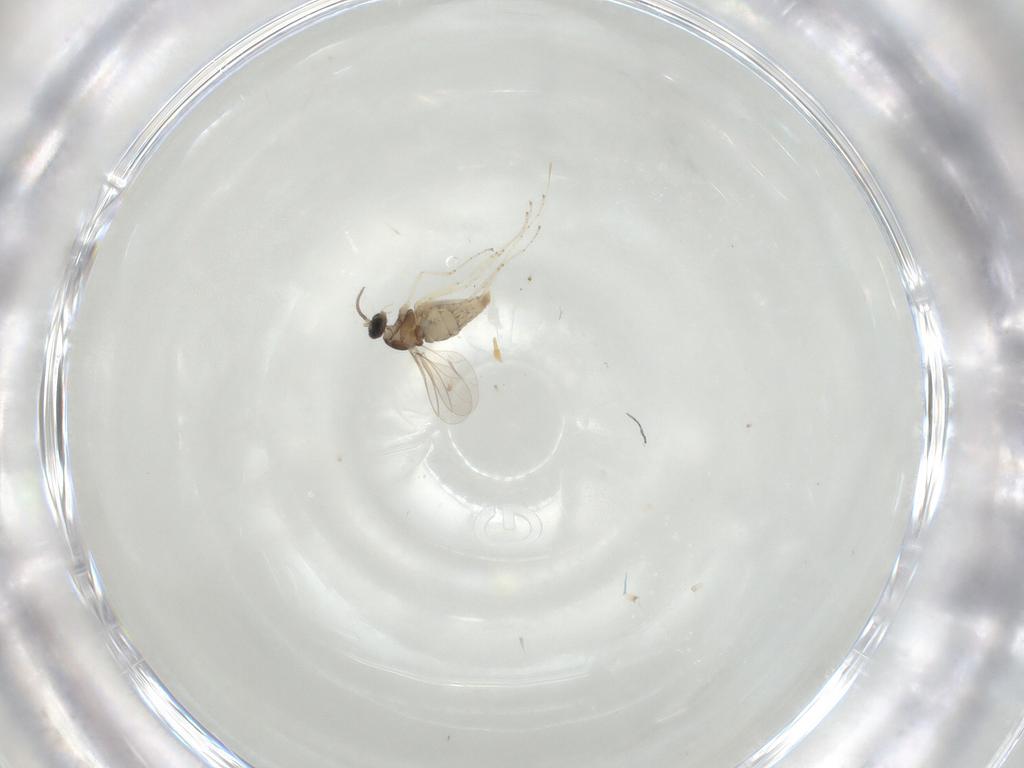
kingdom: Animalia
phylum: Arthropoda
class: Insecta
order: Diptera
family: Cecidomyiidae
